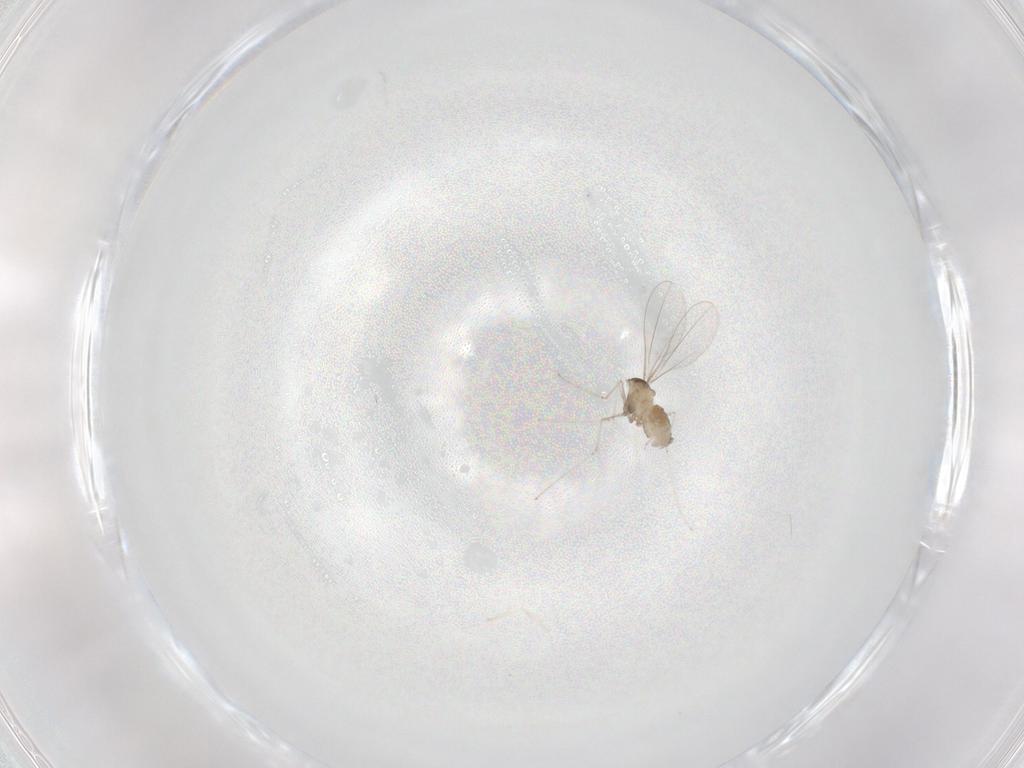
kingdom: Animalia
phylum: Arthropoda
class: Insecta
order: Diptera
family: Cecidomyiidae
